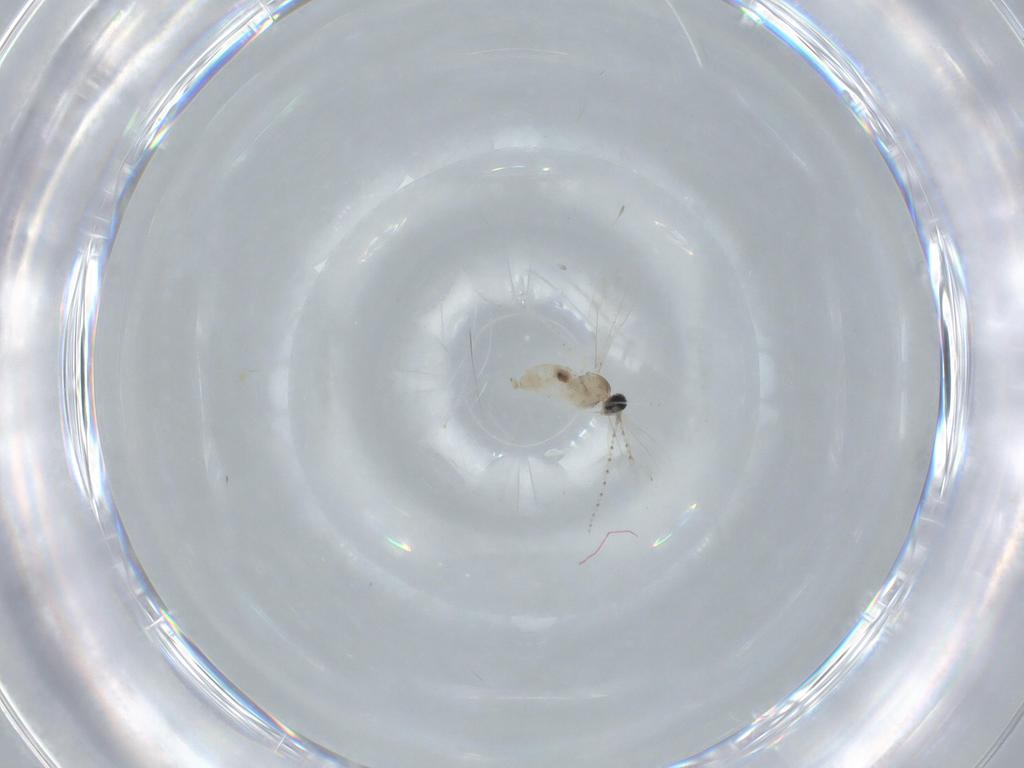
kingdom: Animalia
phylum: Arthropoda
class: Insecta
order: Diptera
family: Cecidomyiidae
